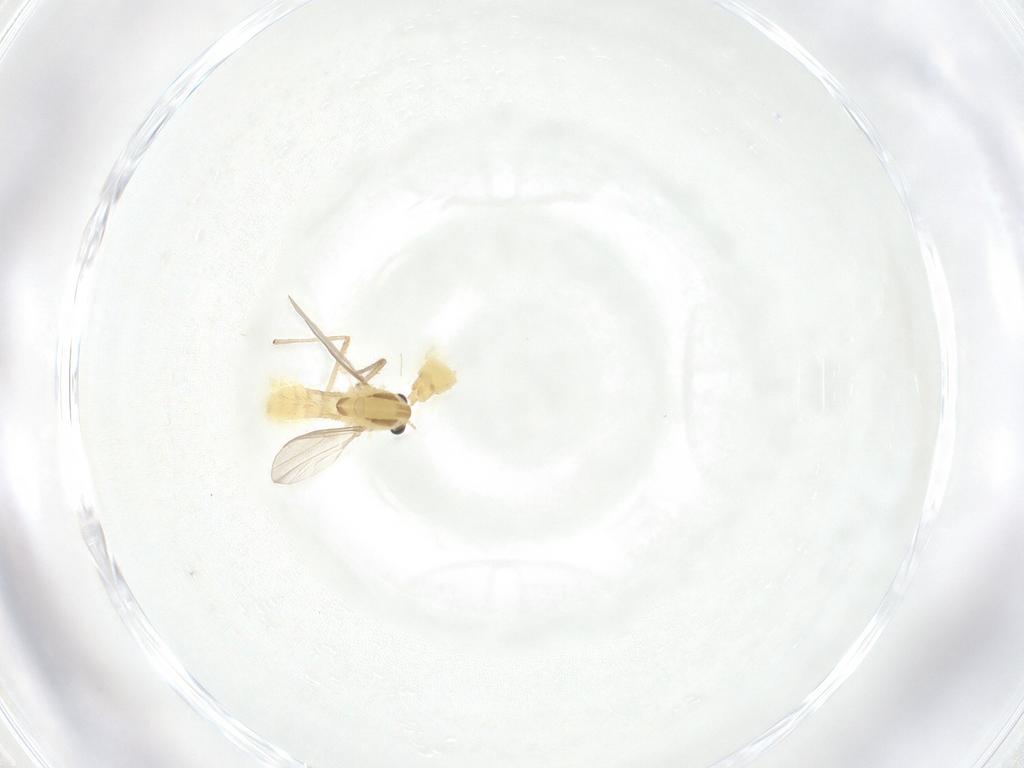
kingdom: Animalia
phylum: Arthropoda
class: Insecta
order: Diptera
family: Chironomidae
